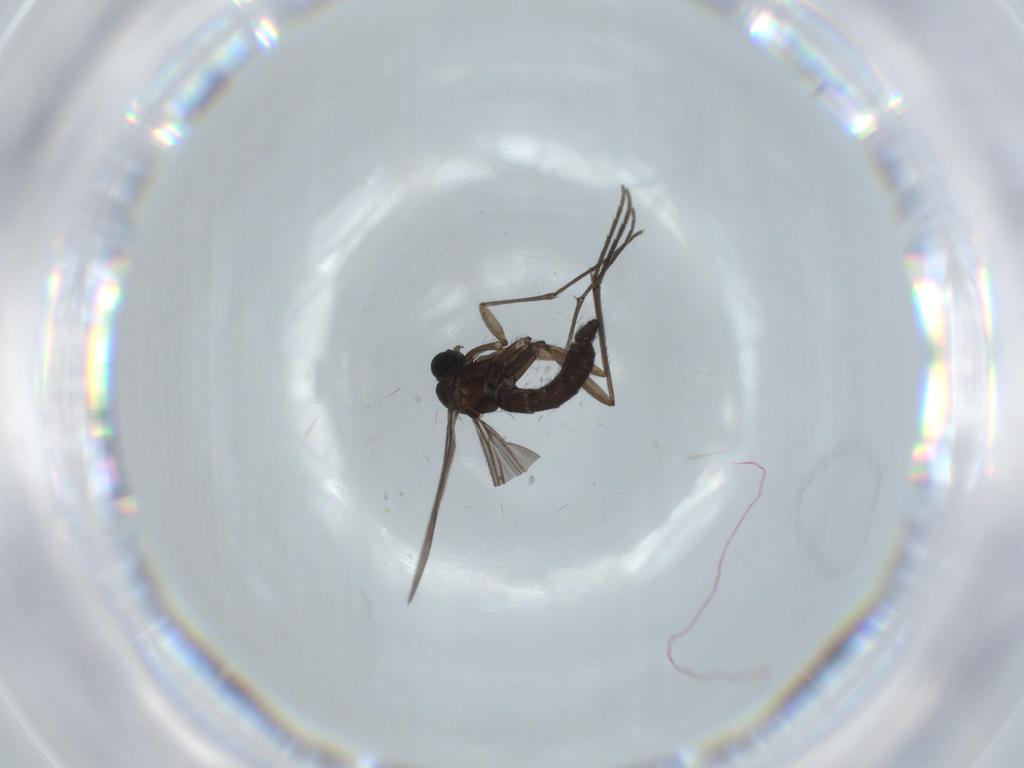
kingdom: Animalia
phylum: Arthropoda
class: Insecta
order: Diptera
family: Sciaridae
